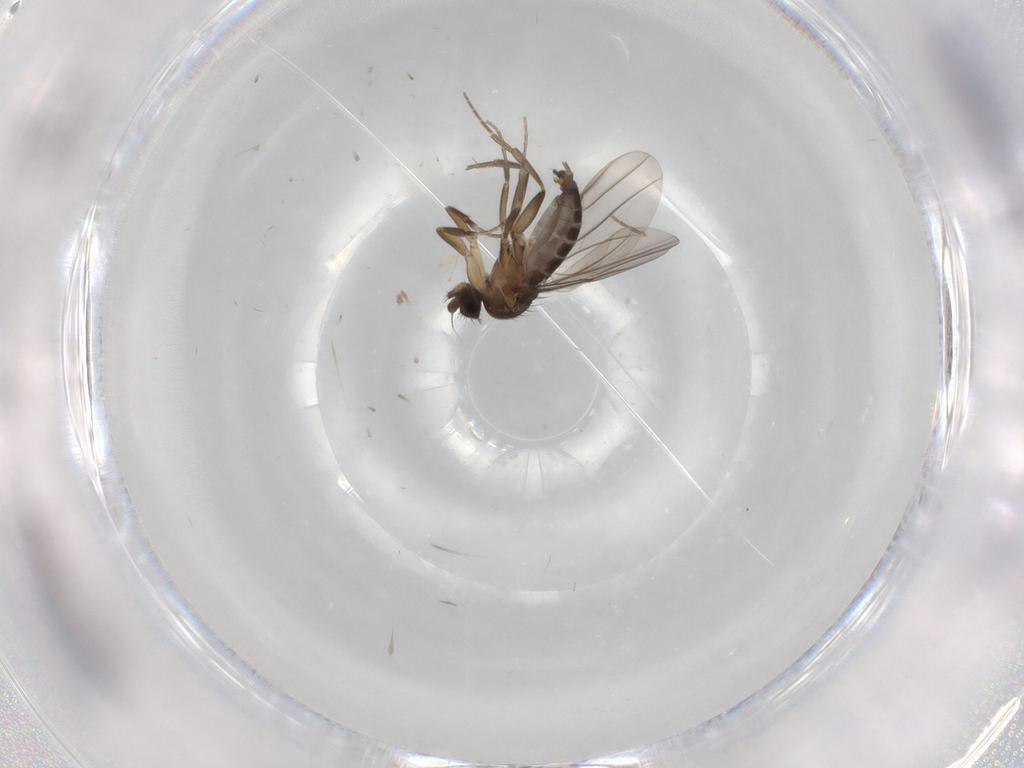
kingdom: Animalia
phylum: Arthropoda
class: Insecta
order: Diptera
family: Phoridae
